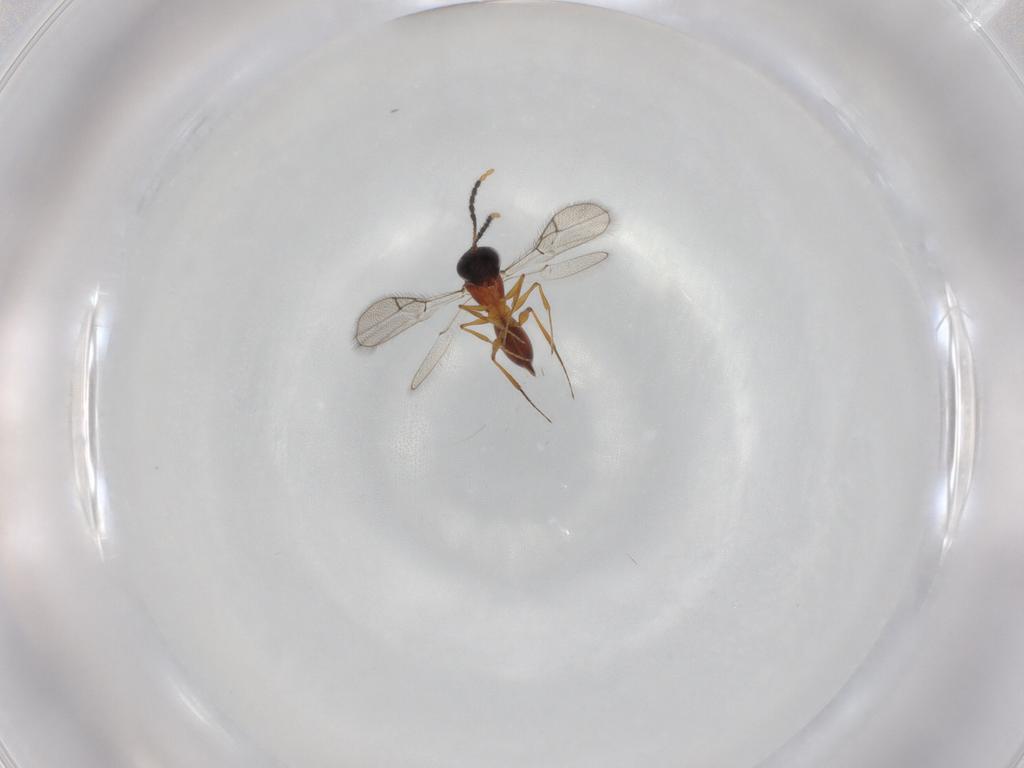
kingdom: Animalia
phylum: Arthropoda
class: Insecta
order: Hymenoptera
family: Figitidae
